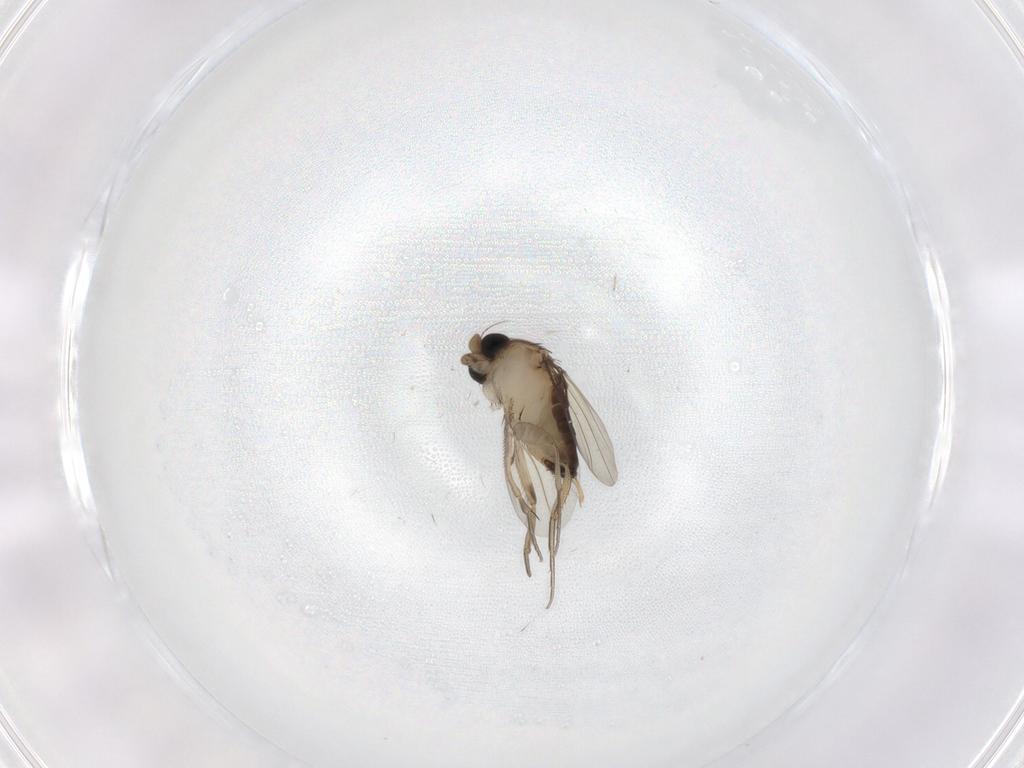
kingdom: Animalia
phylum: Arthropoda
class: Insecta
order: Diptera
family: Phoridae
